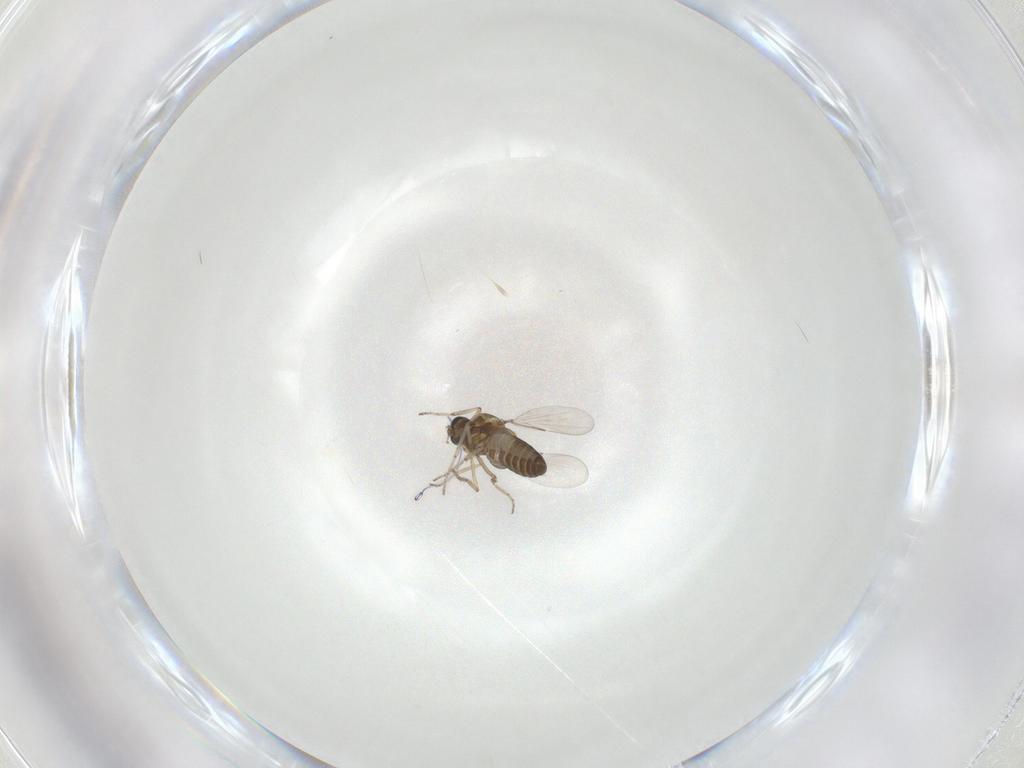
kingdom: Animalia
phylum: Arthropoda
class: Insecta
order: Diptera
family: Ceratopogonidae
